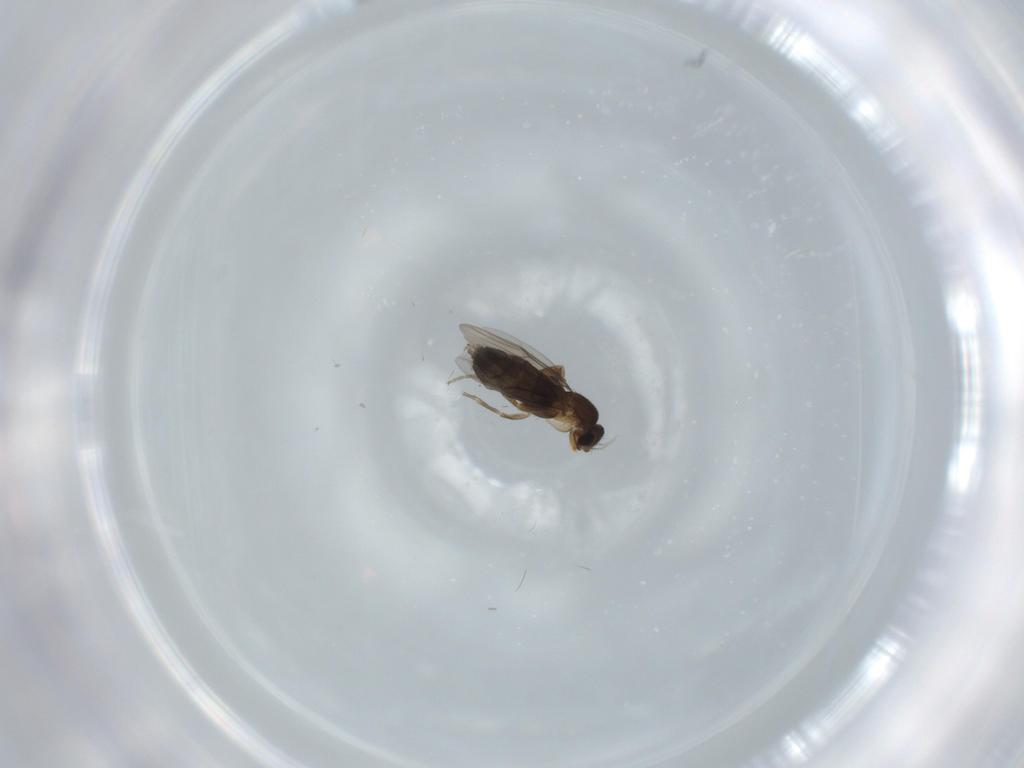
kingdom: Animalia
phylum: Arthropoda
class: Insecta
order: Diptera
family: Phoridae
